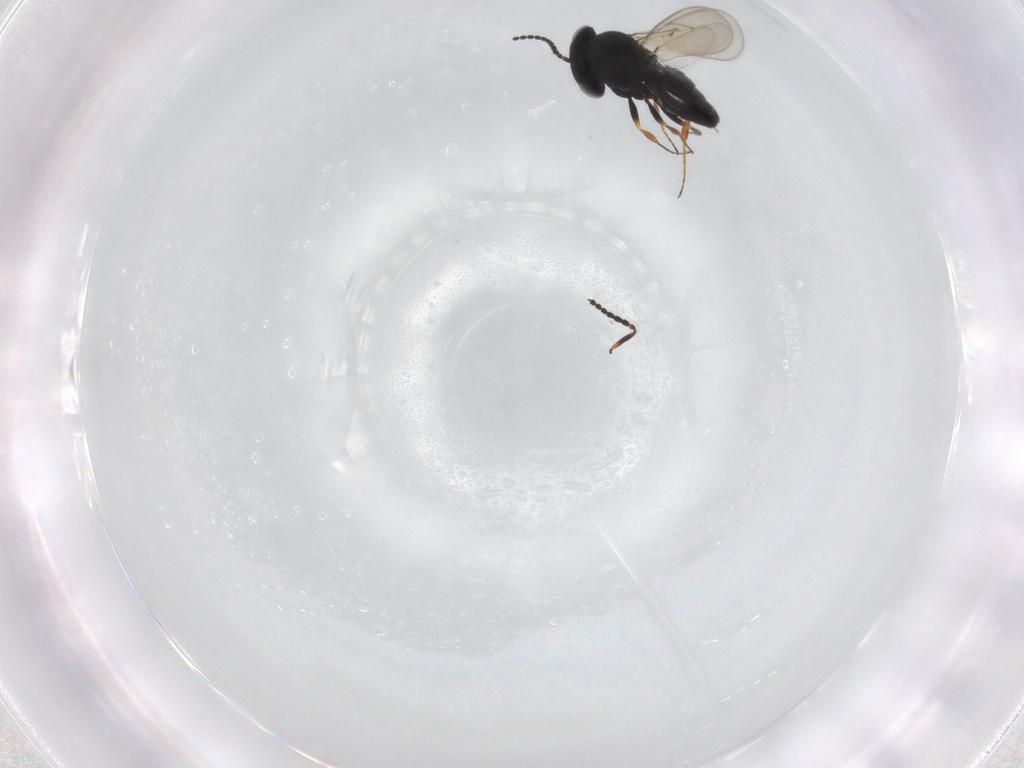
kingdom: Animalia
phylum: Arthropoda
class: Insecta
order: Hymenoptera
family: Scelionidae
